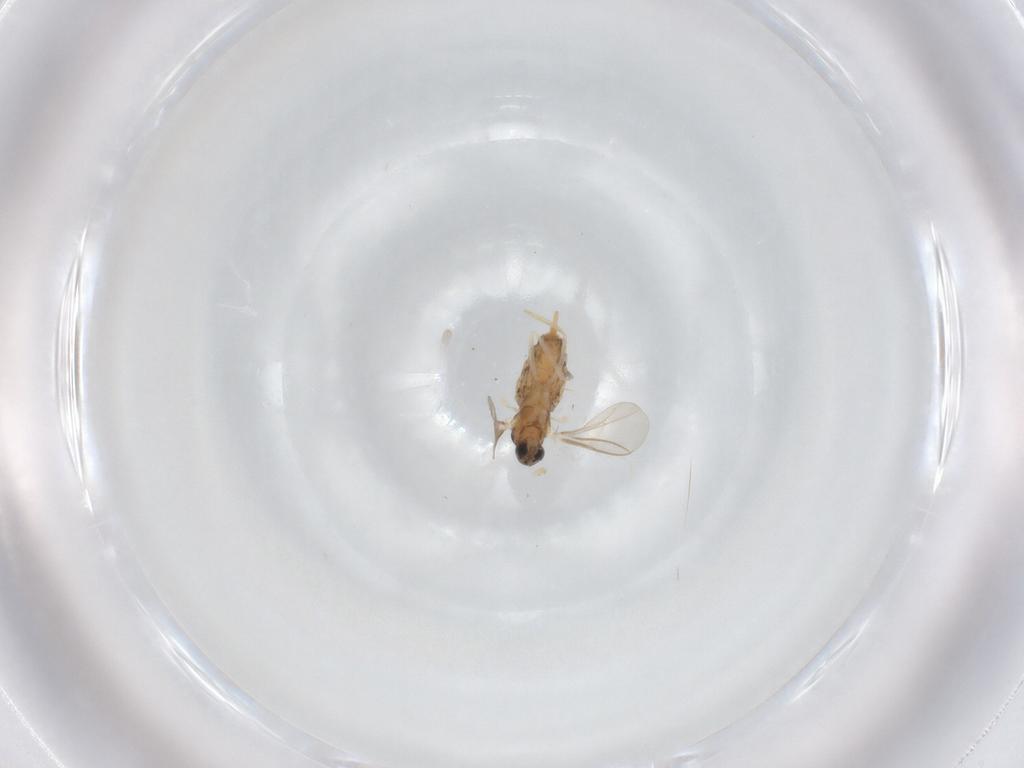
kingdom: Animalia
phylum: Arthropoda
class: Insecta
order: Diptera
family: Cecidomyiidae
